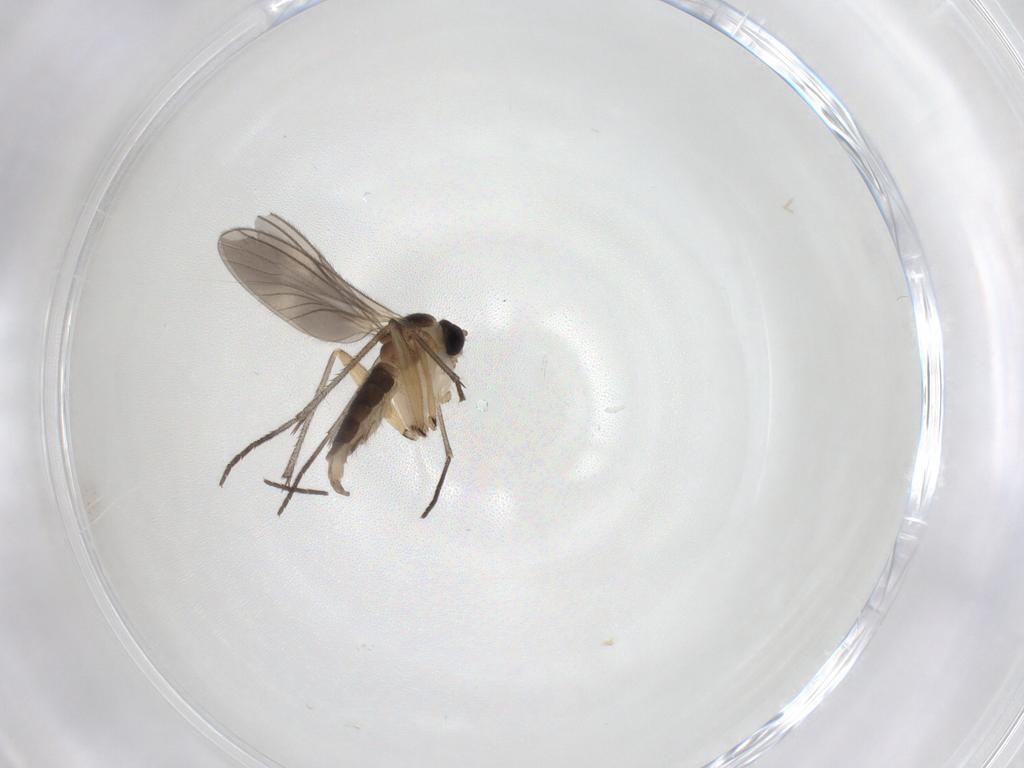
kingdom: Animalia
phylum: Arthropoda
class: Insecta
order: Diptera
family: Sciaridae
